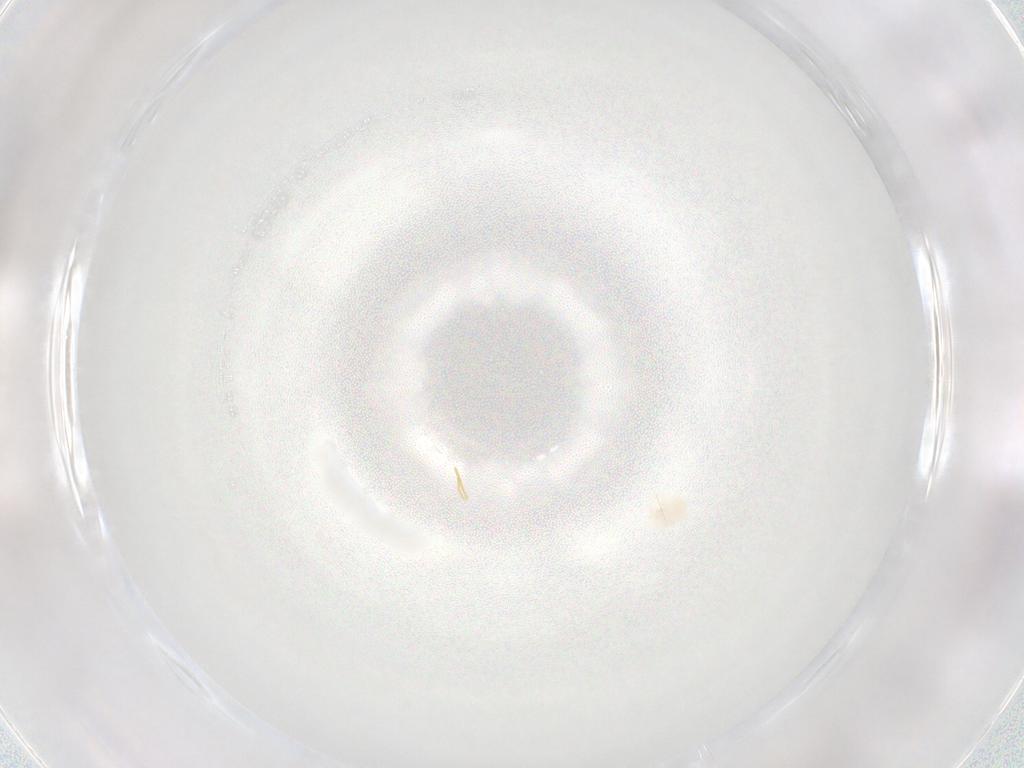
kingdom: Animalia
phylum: Arthropoda
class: Arachnida
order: Trombidiformes
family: Anystidae
